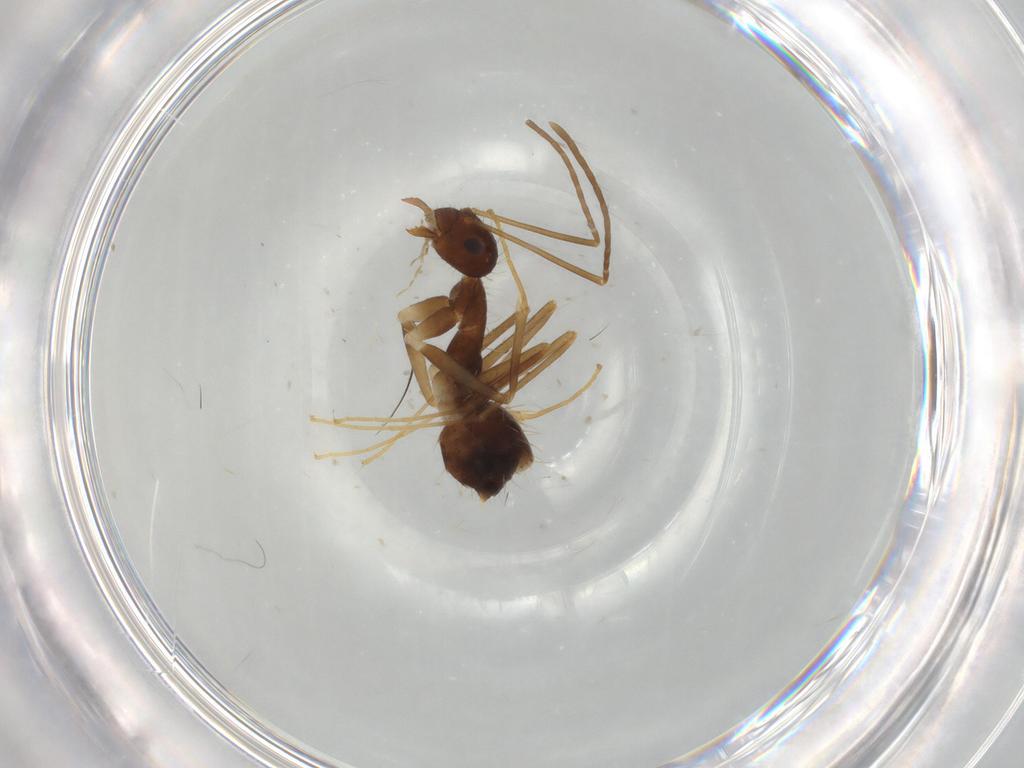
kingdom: Animalia
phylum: Arthropoda
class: Insecta
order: Hymenoptera
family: Formicidae
